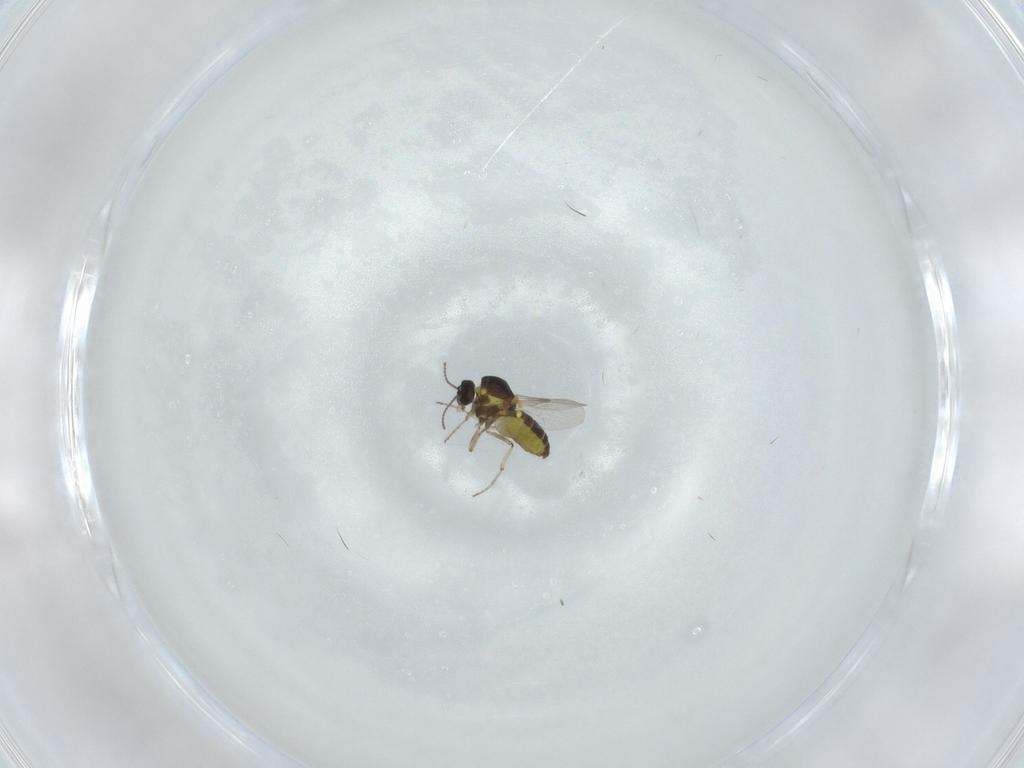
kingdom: Animalia
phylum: Arthropoda
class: Insecta
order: Diptera
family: Ceratopogonidae
